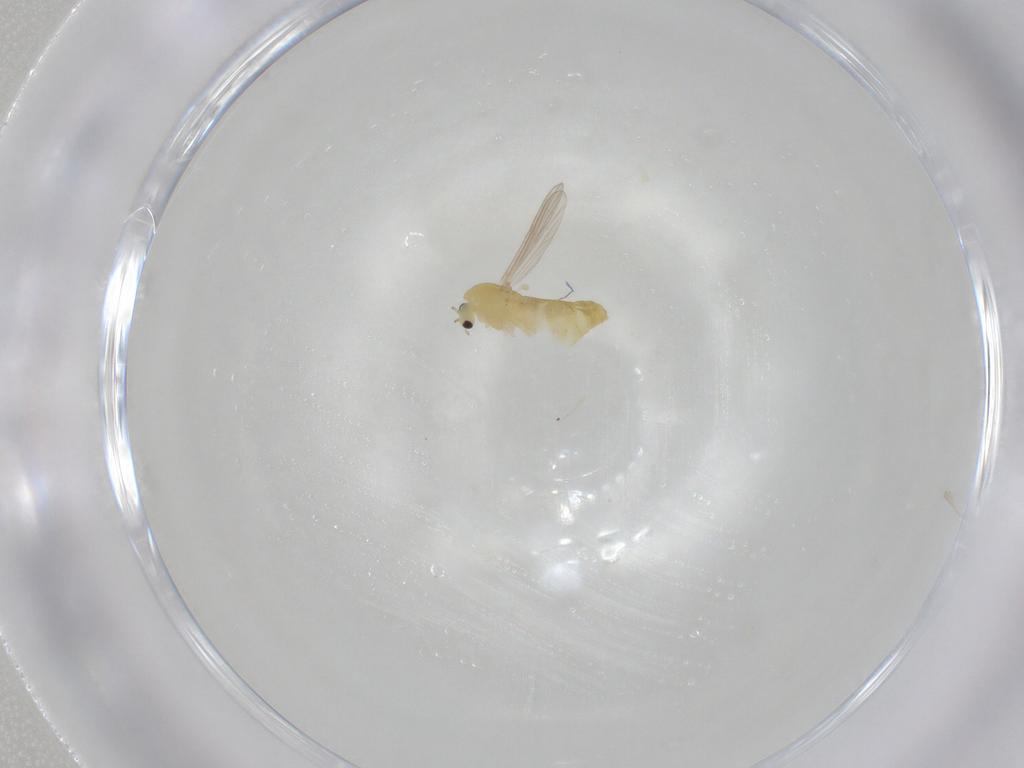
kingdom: Animalia
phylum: Arthropoda
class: Insecta
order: Diptera
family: Chironomidae
